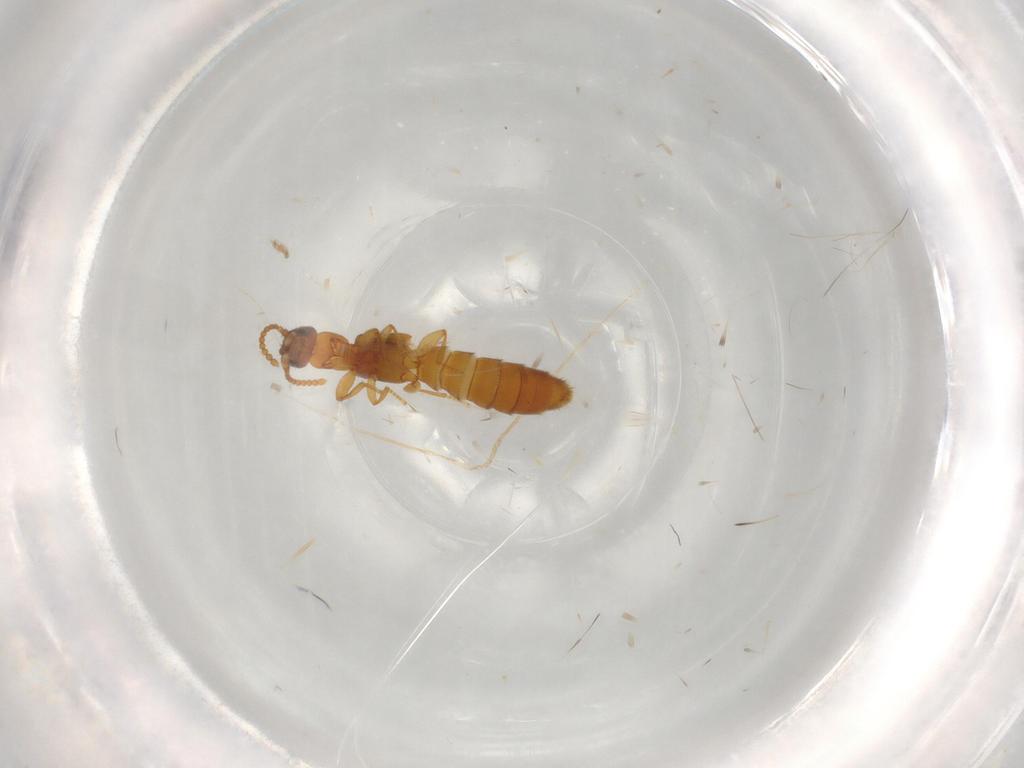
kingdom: Animalia
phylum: Arthropoda
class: Insecta
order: Coleoptera
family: Staphylinidae
